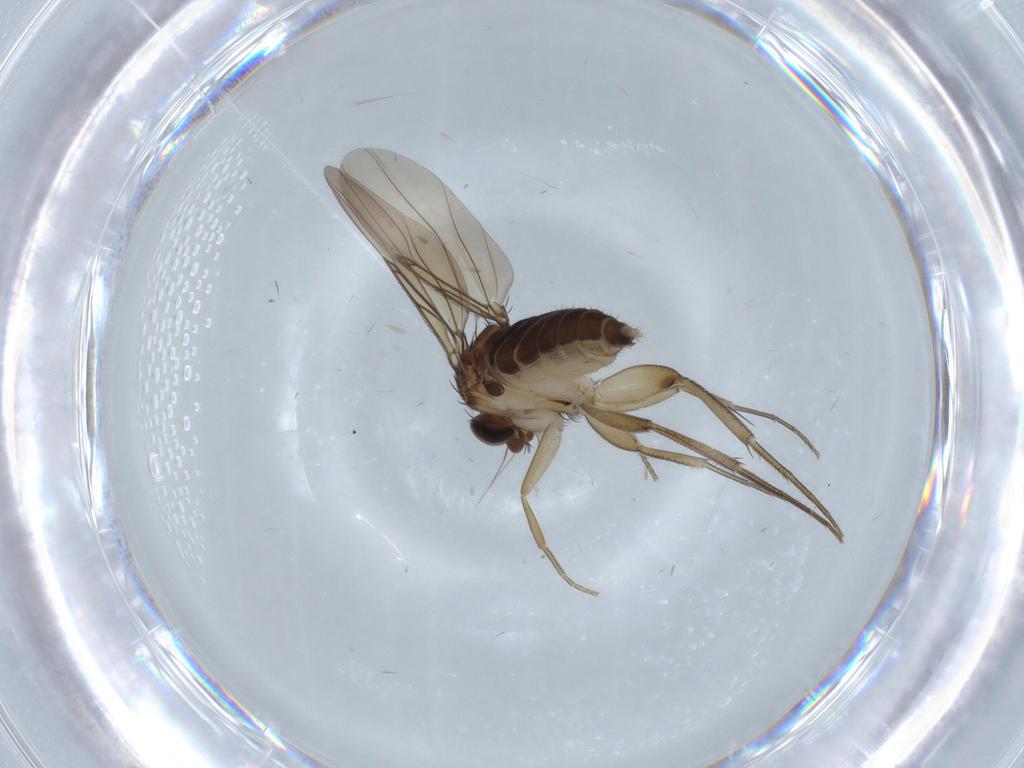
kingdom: Animalia
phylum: Arthropoda
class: Insecta
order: Diptera
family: Phoridae
